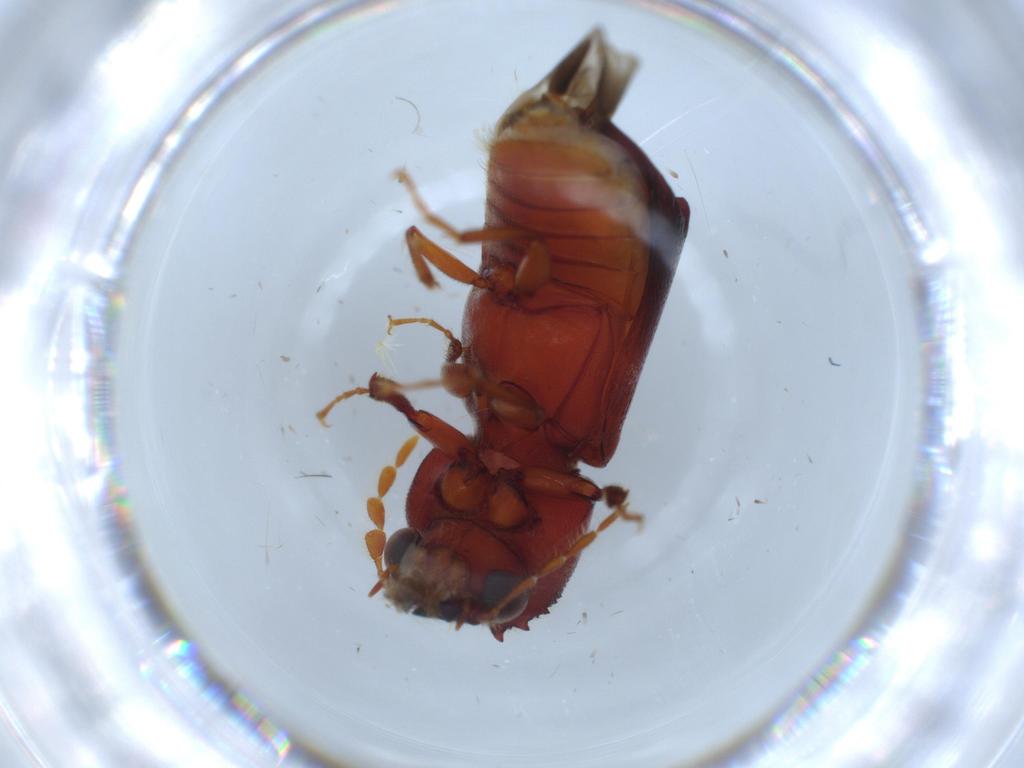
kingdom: Animalia
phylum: Arthropoda
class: Insecta
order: Coleoptera
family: Bostrichidae
